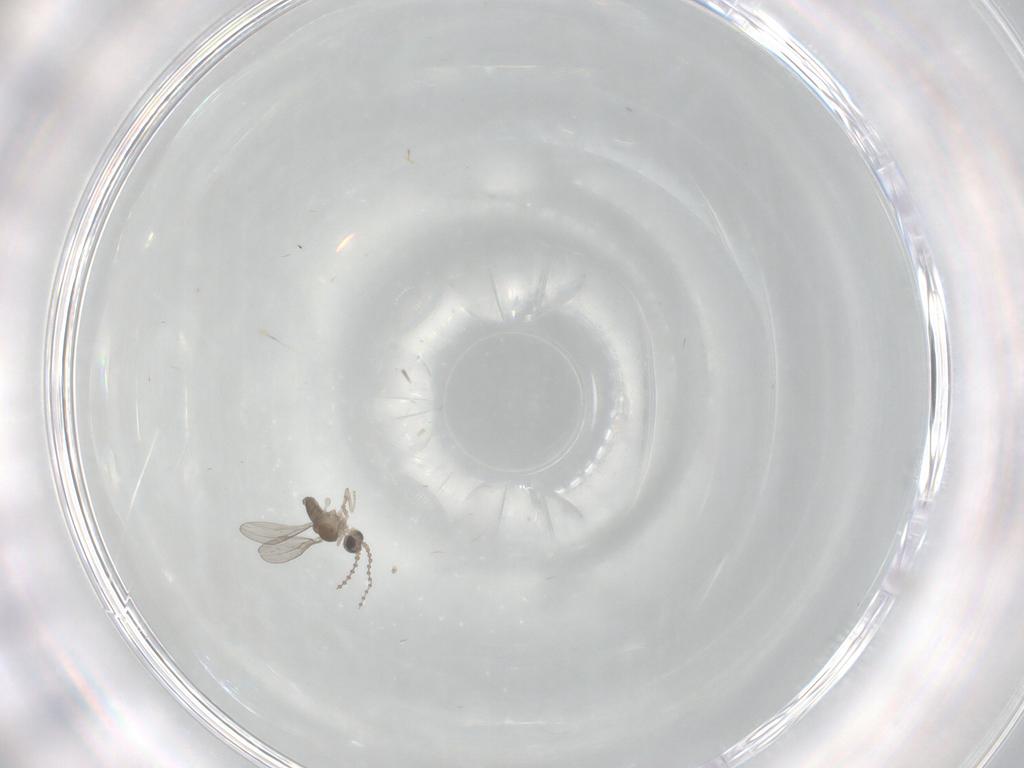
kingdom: Animalia
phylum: Arthropoda
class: Insecta
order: Diptera
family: Cecidomyiidae
